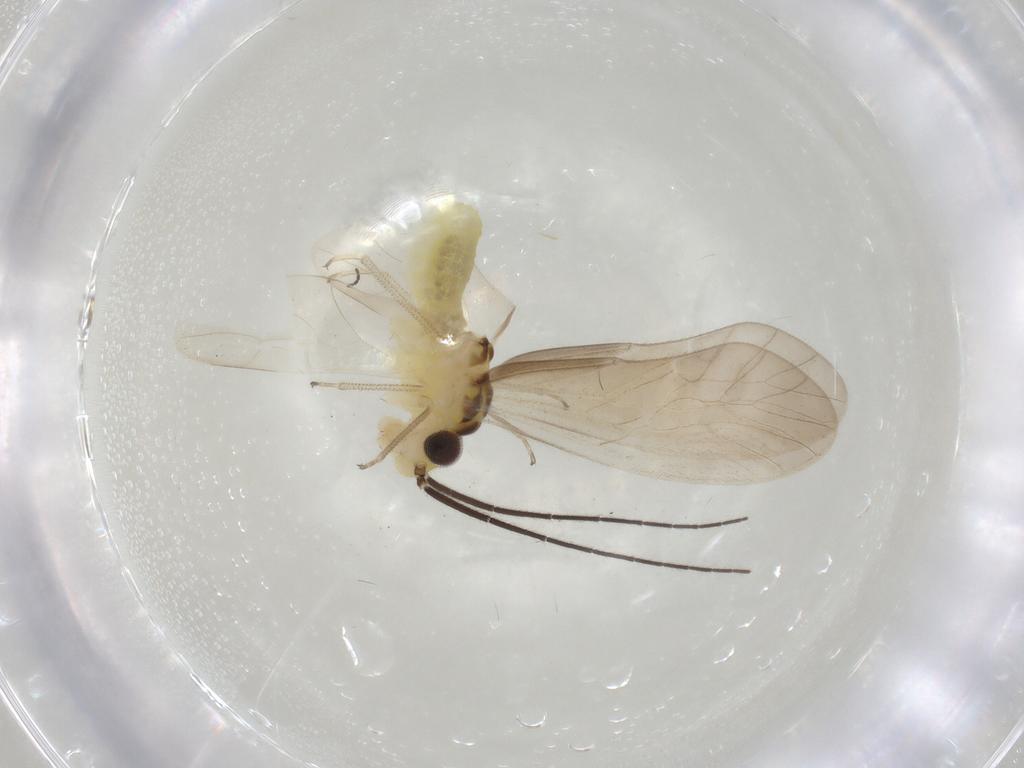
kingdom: Animalia
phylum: Arthropoda
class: Insecta
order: Psocodea
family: Caeciliusidae
